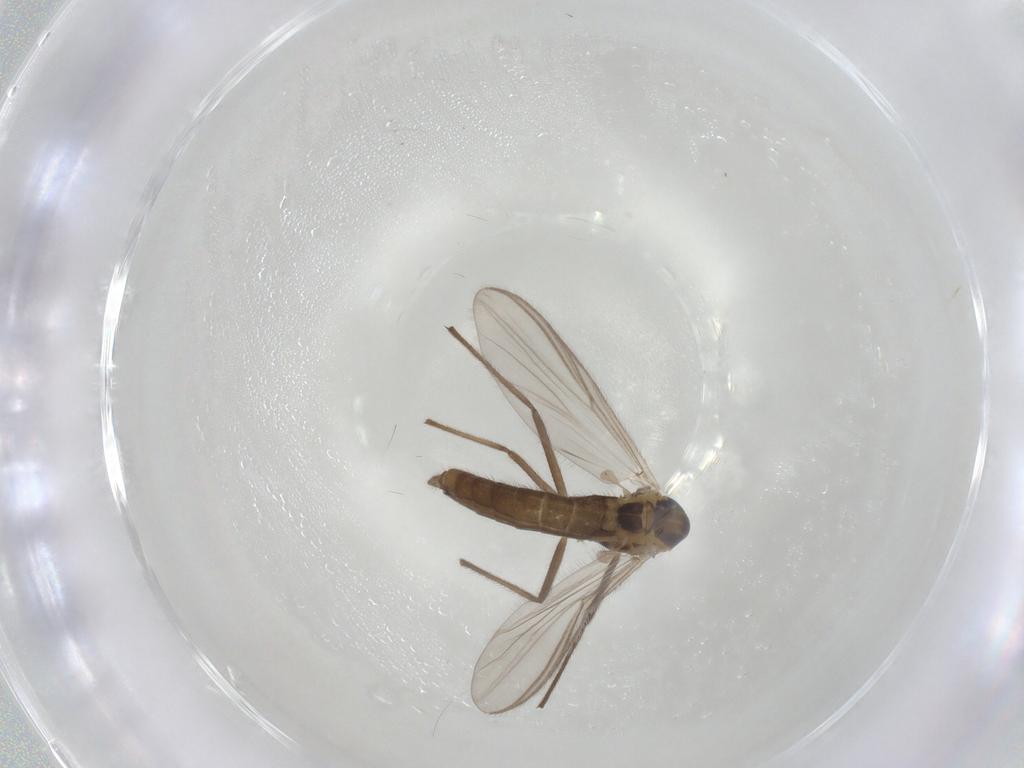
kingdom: Animalia
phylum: Arthropoda
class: Insecta
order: Diptera
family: Chironomidae
